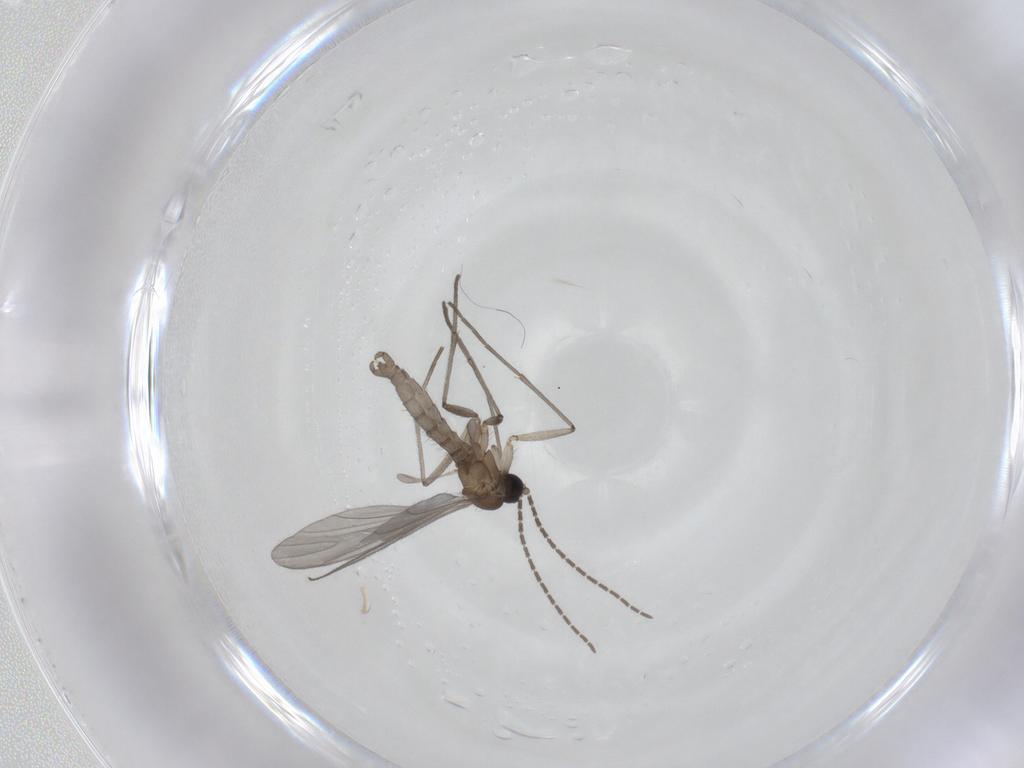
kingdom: Animalia
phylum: Arthropoda
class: Insecta
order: Diptera
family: Sciaridae
